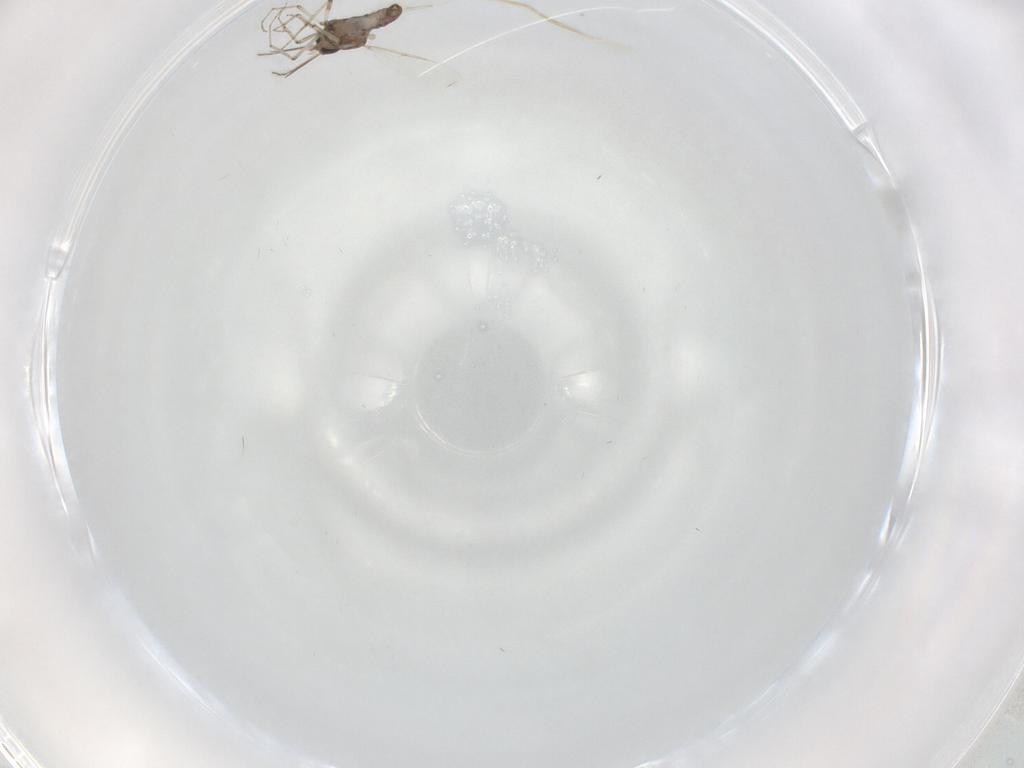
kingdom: Animalia
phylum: Arthropoda
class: Insecta
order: Diptera
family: Ceratopogonidae
